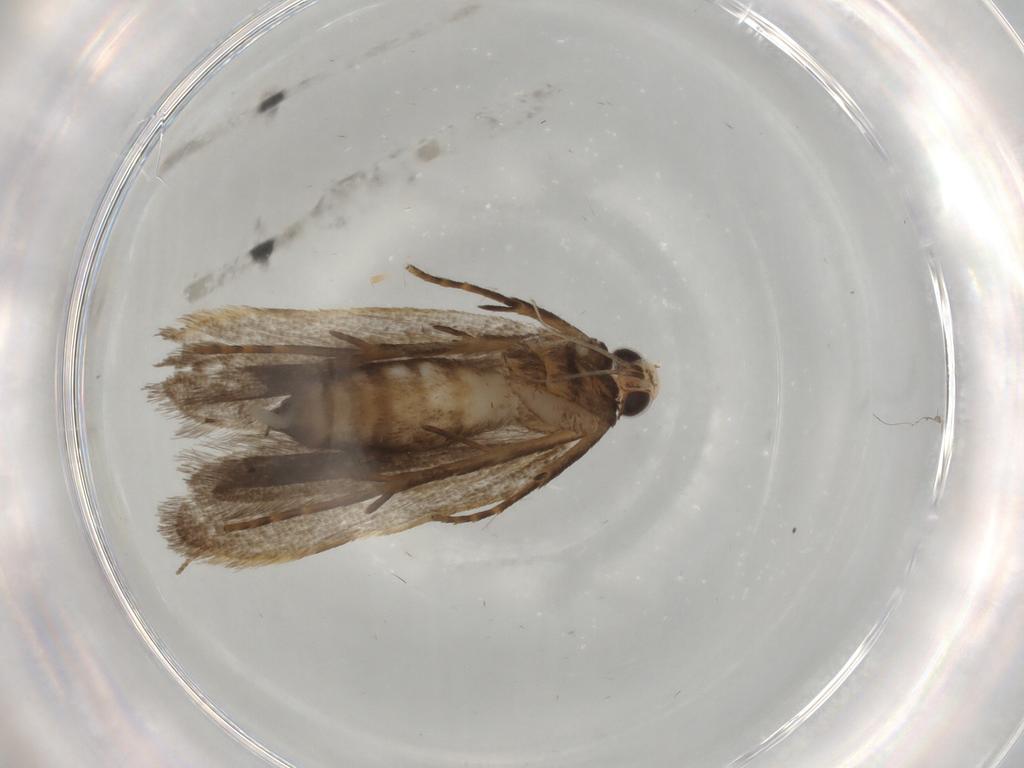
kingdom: Animalia
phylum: Arthropoda
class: Insecta
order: Lepidoptera
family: Gelechiidae
